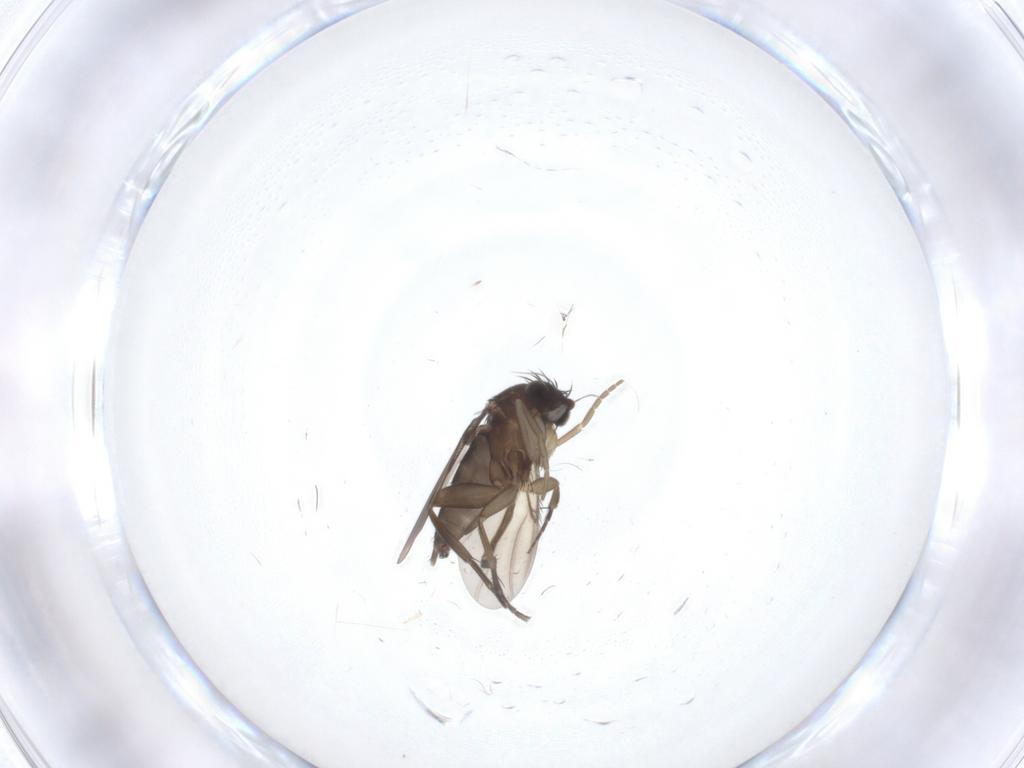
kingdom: Animalia
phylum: Arthropoda
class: Insecta
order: Diptera
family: Phoridae
